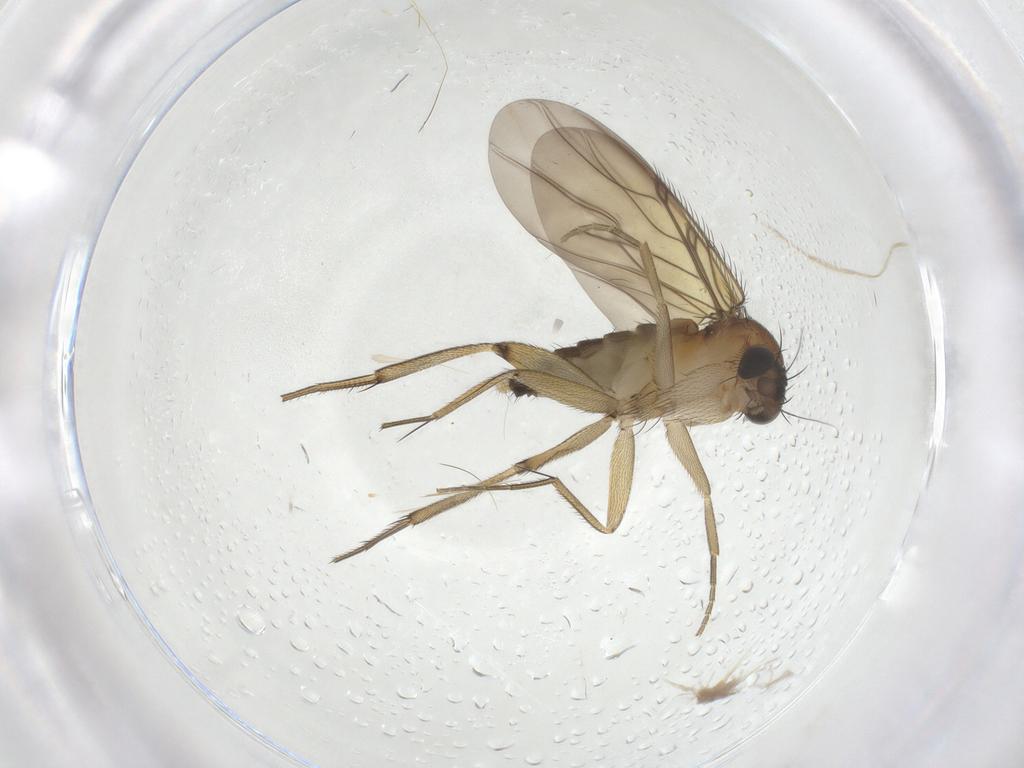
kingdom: Animalia
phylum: Arthropoda
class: Insecta
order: Diptera
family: Phoridae
